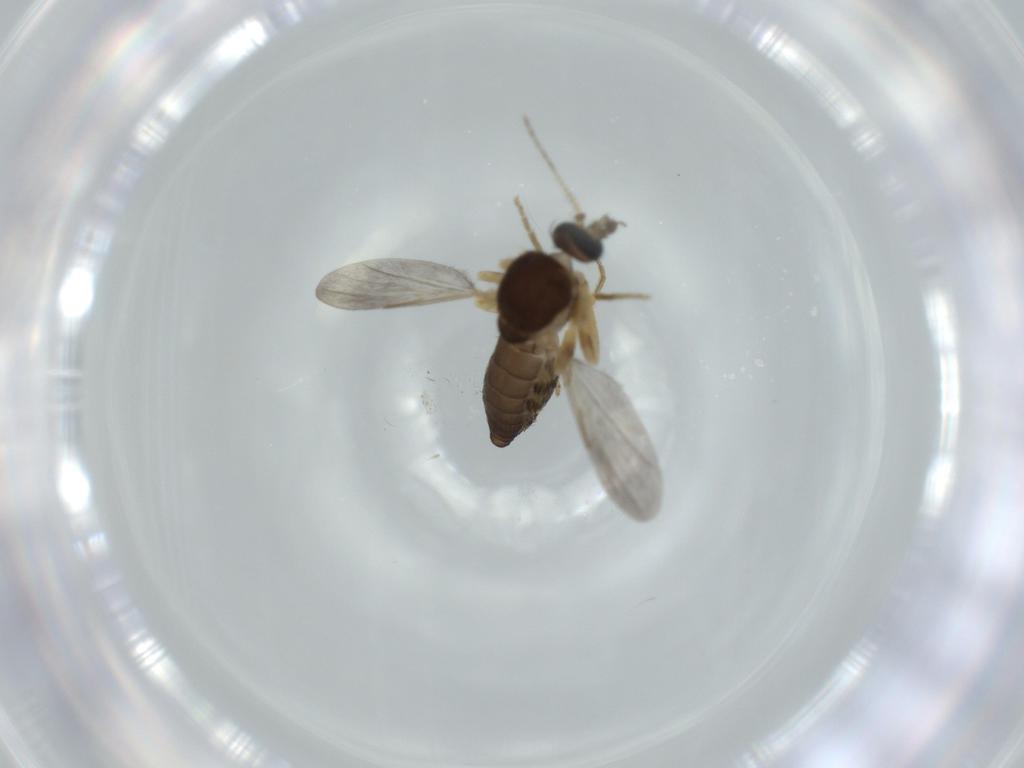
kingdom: Animalia
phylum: Arthropoda
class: Insecta
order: Diptera
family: Ceratopogonidae
